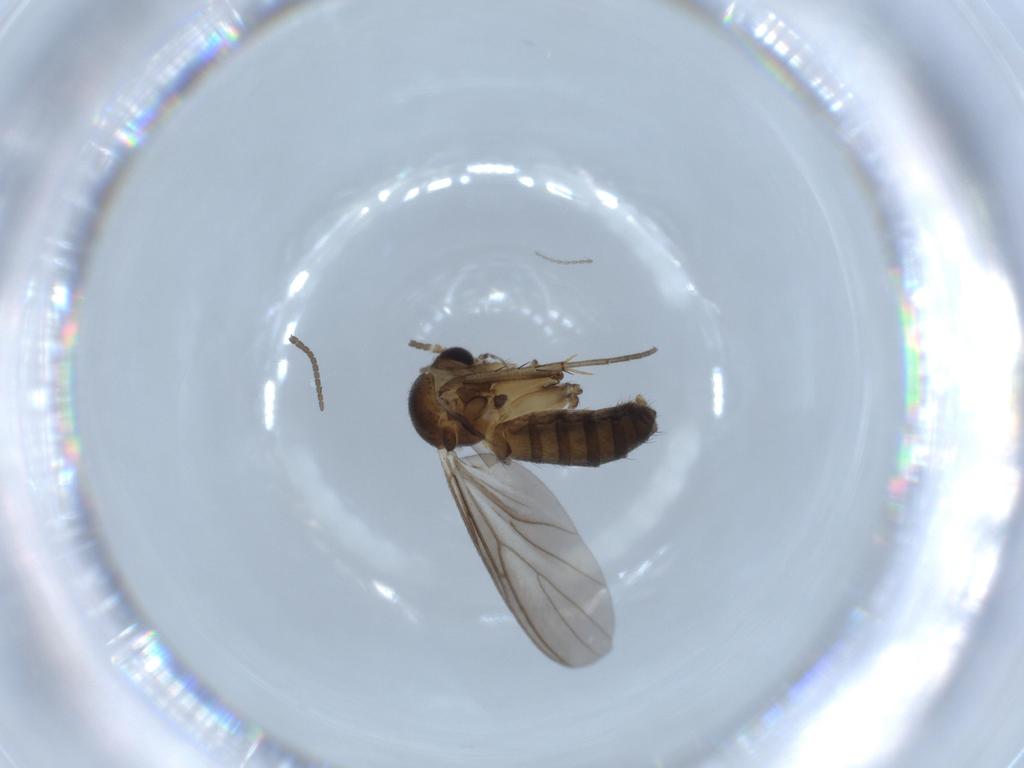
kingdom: Animalia
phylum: Arthropoda
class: Insecta
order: Diptera
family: Mycetophilidae
